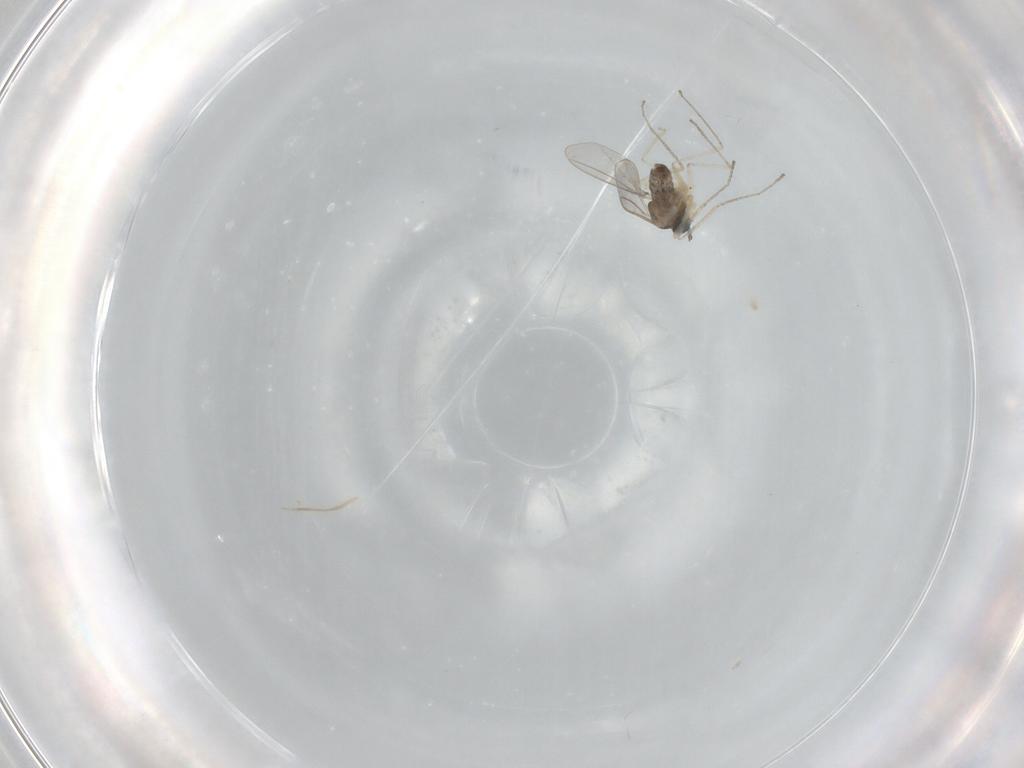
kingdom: Animalia
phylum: Arthropoda
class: Insecta
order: Diptera
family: Cecidomyiidae
